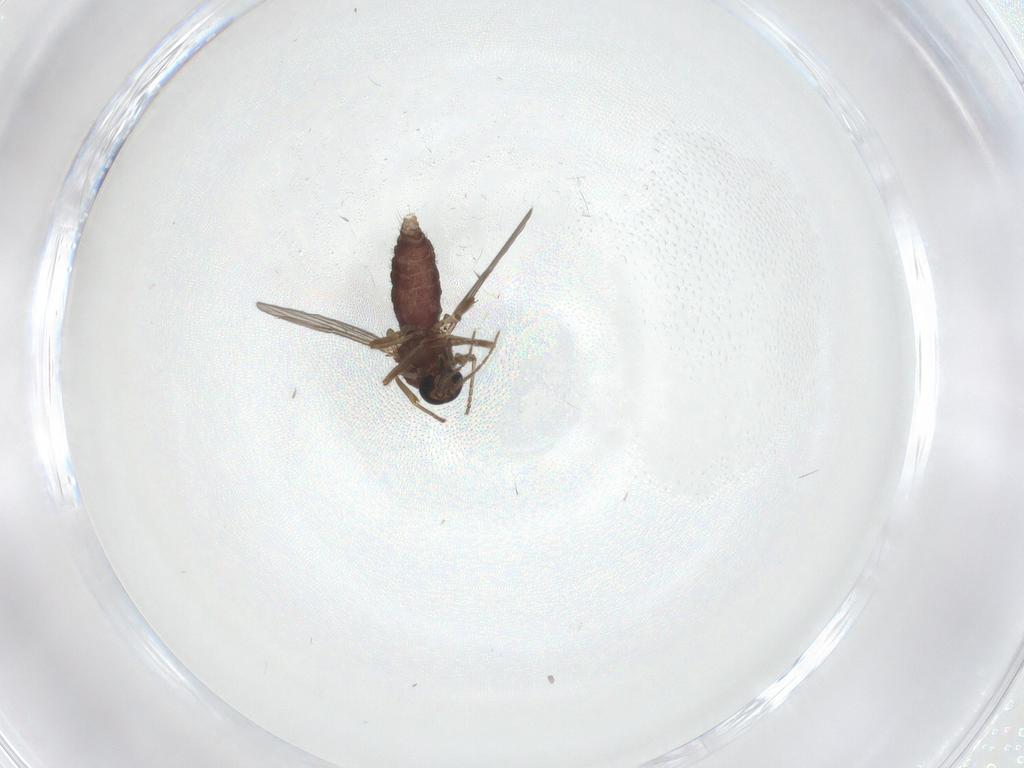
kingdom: Animalia
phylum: Arthropoda
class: Insecta
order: Diptera
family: Ceratopogonidae
